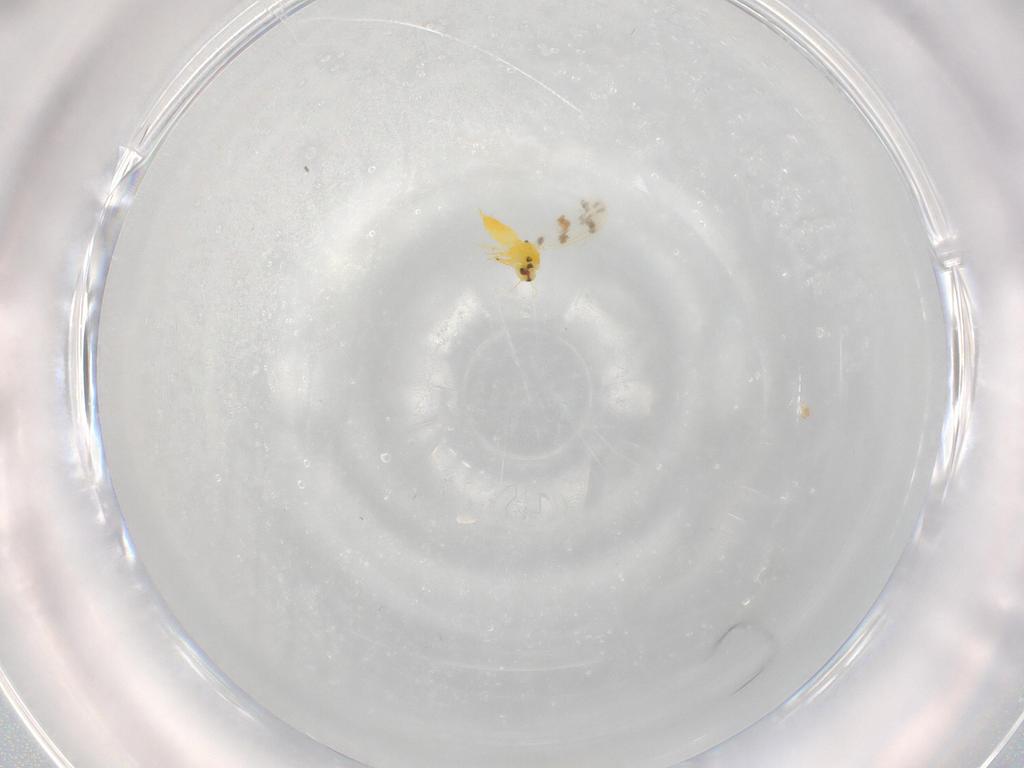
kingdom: Animalia
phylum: Arthropoda
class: Insecta
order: Hemiptera
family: Aleyrodidae
